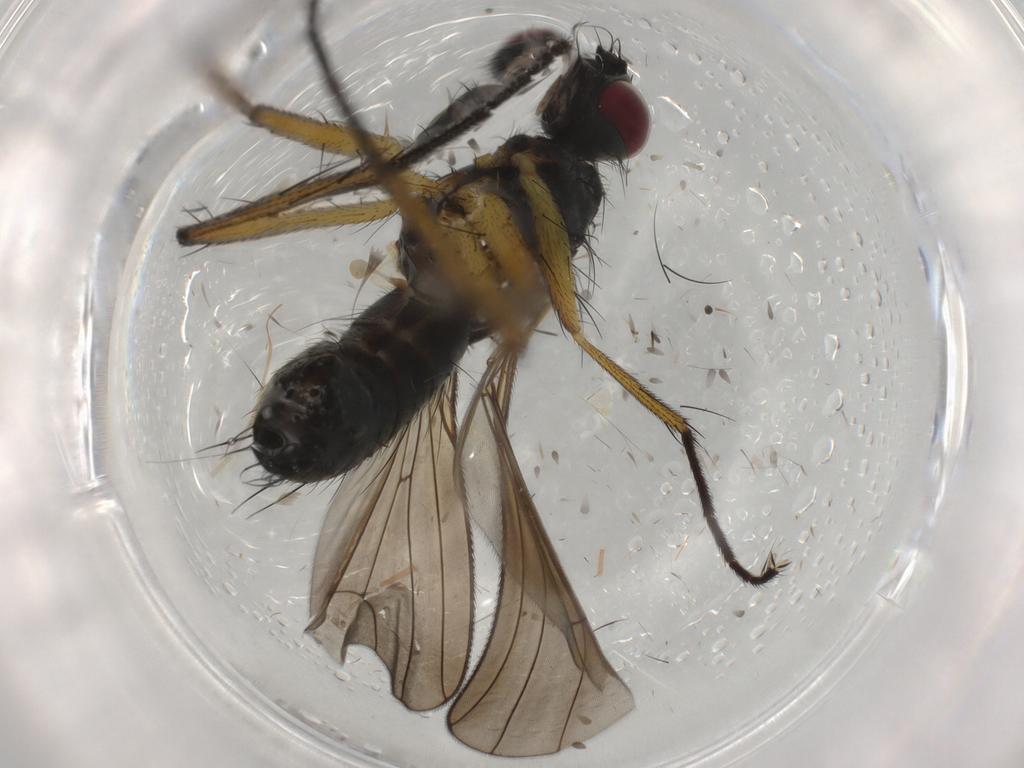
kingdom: Animalia
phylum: Arthropoda
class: Insecta
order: Diptera
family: Muscidae
